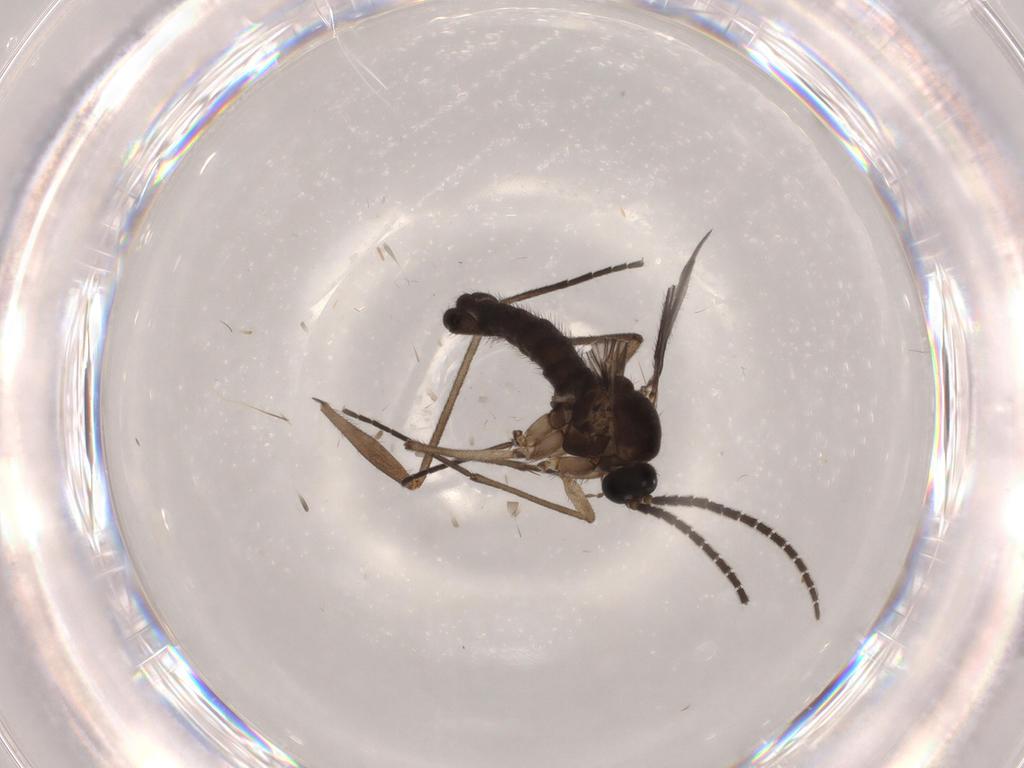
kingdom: Animalia
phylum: Arthropoda
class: Insecta
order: Diptera
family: Sciaridae
